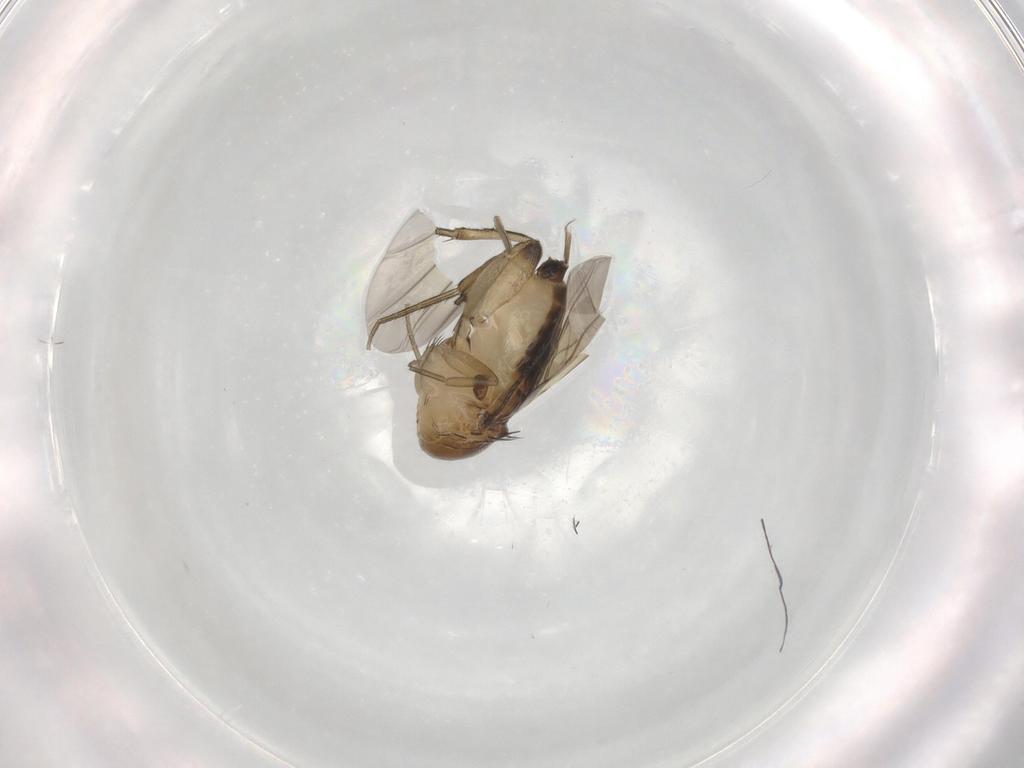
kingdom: Animalia
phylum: Arthropoda
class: Insecta
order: Diptera
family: Phoridae
